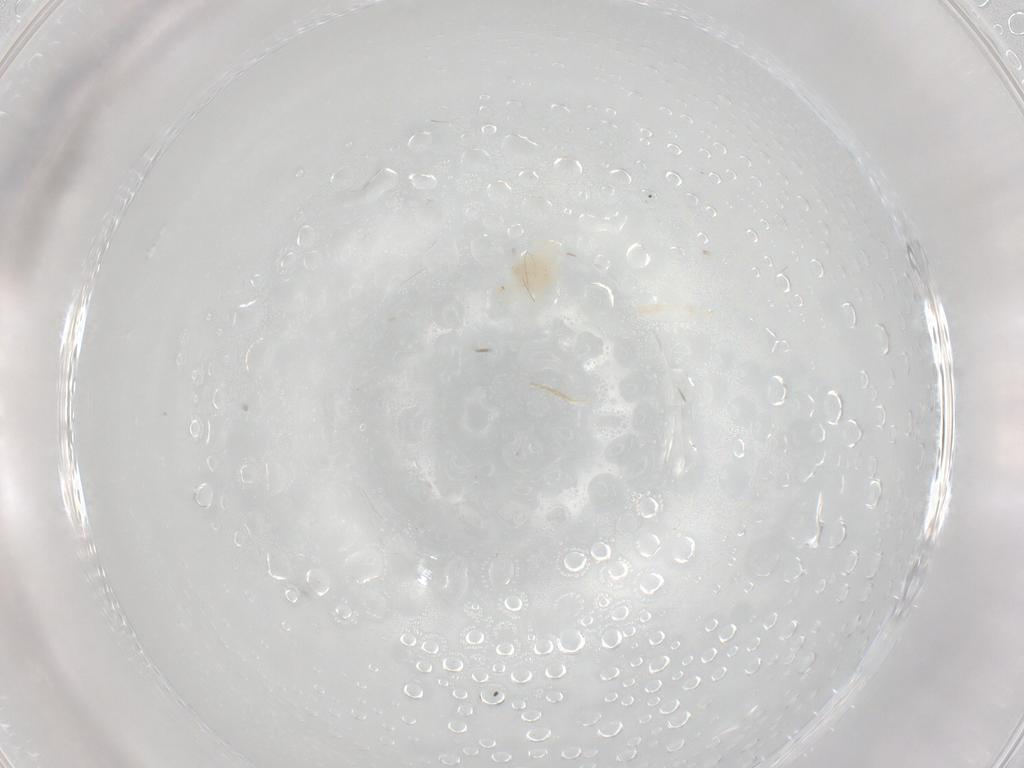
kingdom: Animalia
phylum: Arthropoda
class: Arachnida
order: Trombidiformes
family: Anystidae
